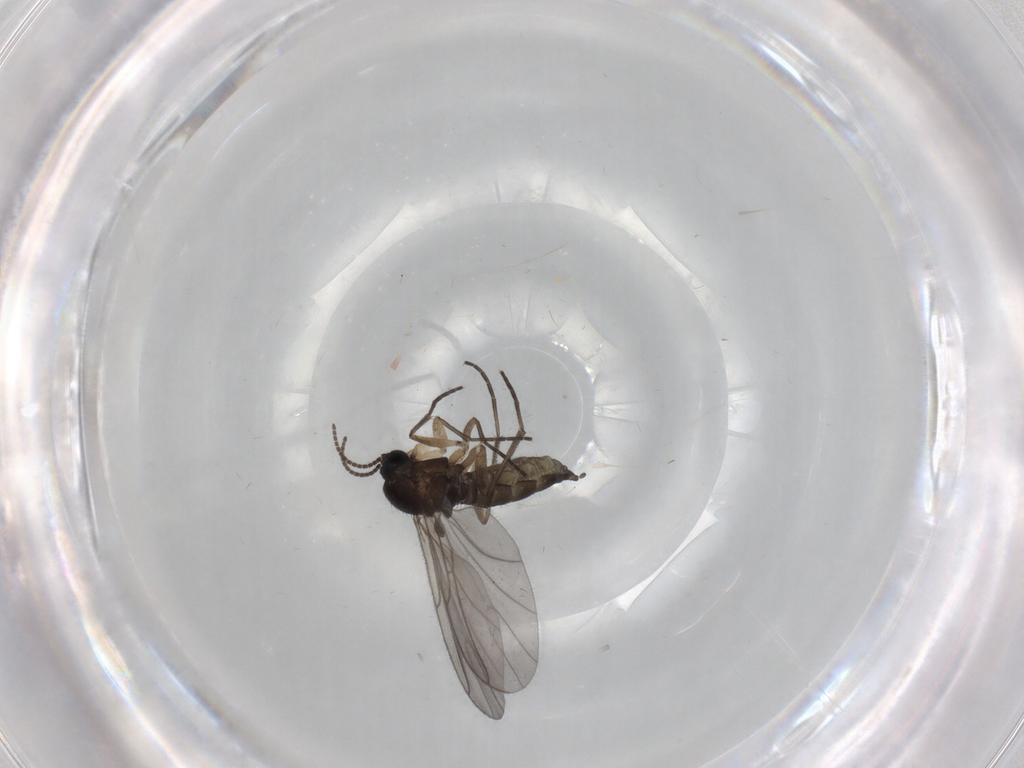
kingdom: Animalia
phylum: Arthropoda
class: Insecta
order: Diptera
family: Sciaridae
